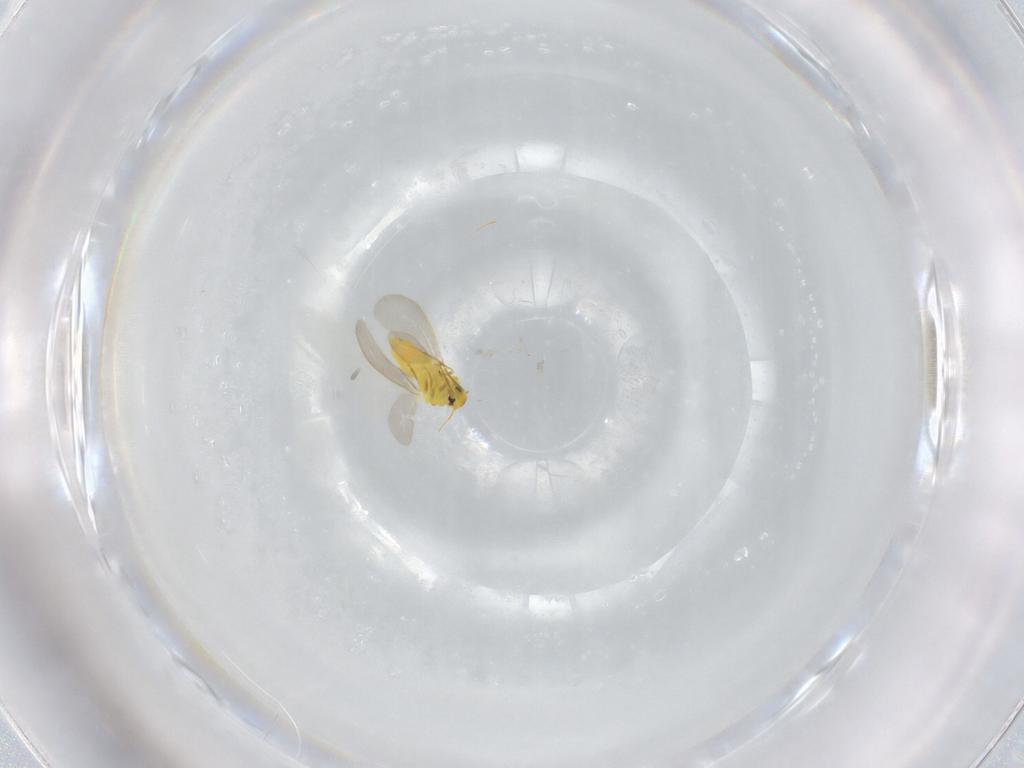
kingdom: Animalia
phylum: Arthropoda
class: Insecta
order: Hemiptera
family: Aleyrodidae
